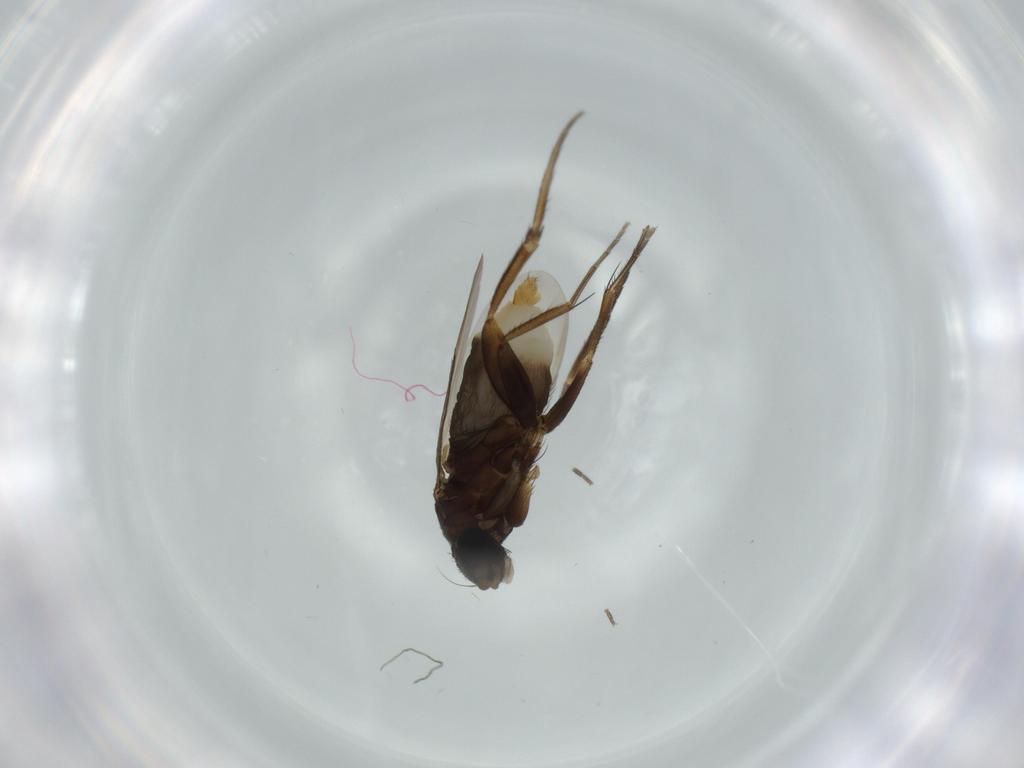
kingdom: Animalia
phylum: Arthropoda
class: Insecta
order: Diptera
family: Phoridae
